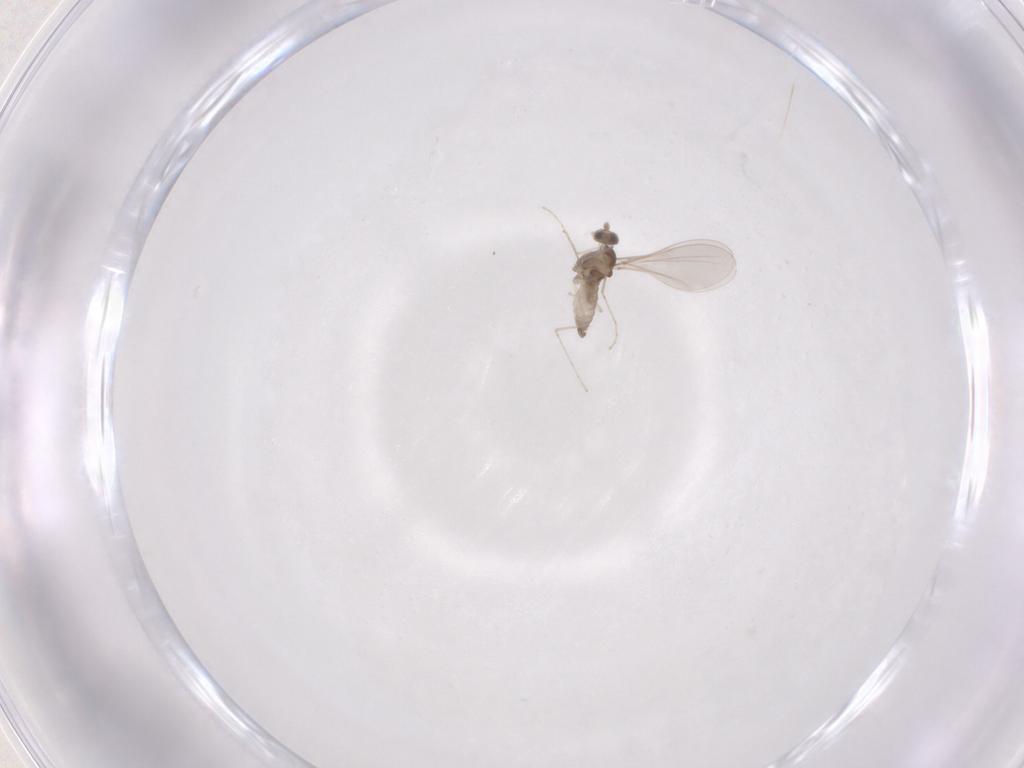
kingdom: Animalia
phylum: Arthropoda
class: Insecta
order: Diptera
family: Cecidomyiidae
